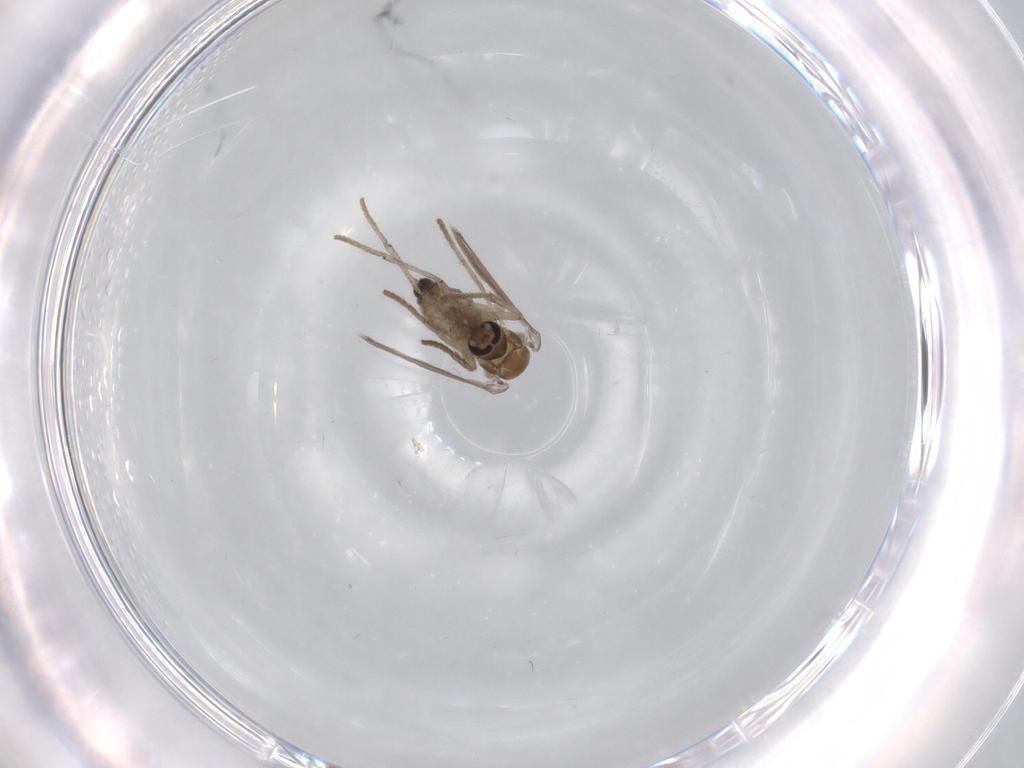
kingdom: Animalia
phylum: Arthropoda
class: Insecta
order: Diptera
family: Psychodidae
